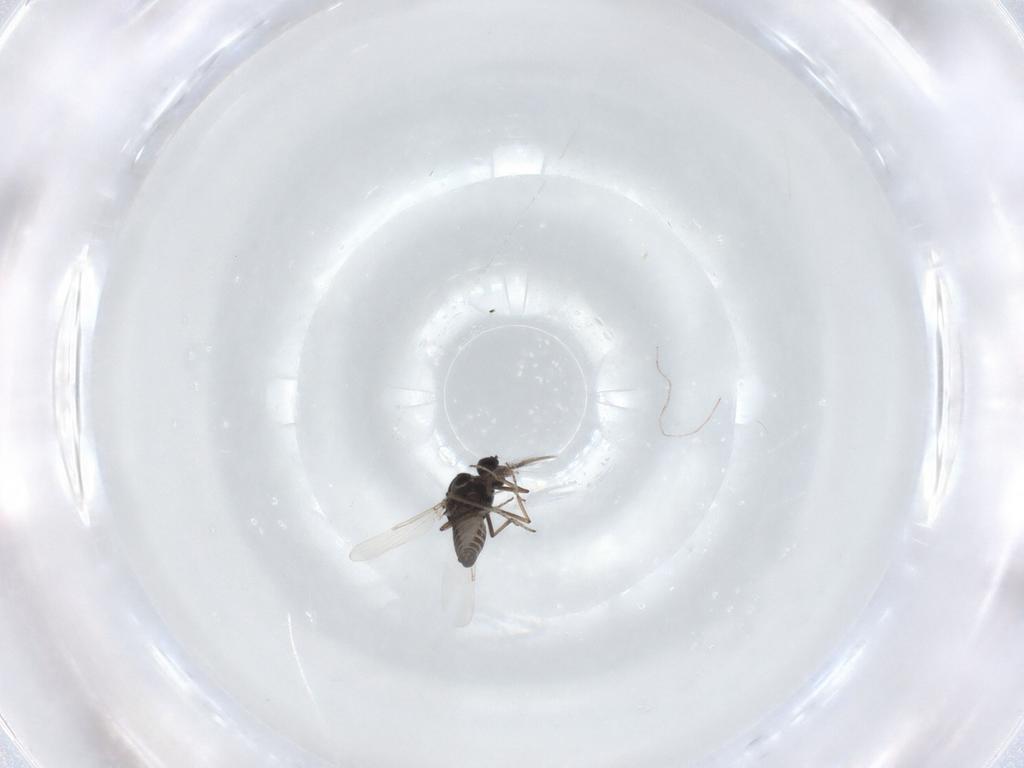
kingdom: Animalia
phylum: Arthropoda
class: Insecta
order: Diptera
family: Ceratopogonidae
